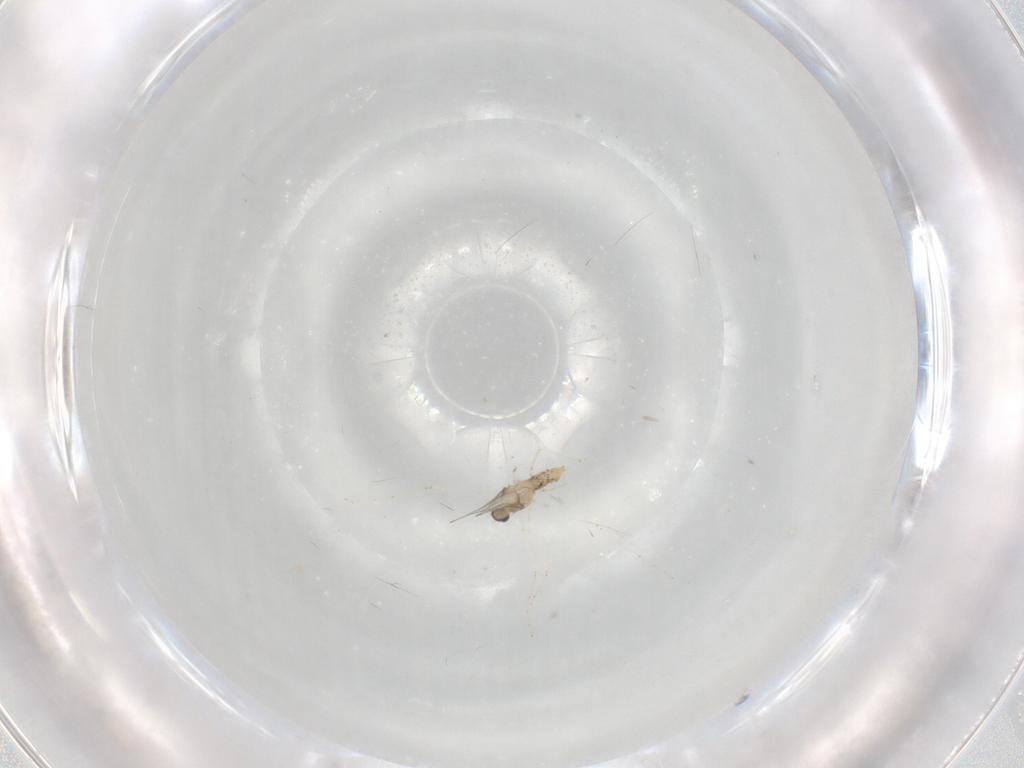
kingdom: Animalia
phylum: Arthropoda
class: Insecta
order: Diptera
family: Cecidomyiidae
